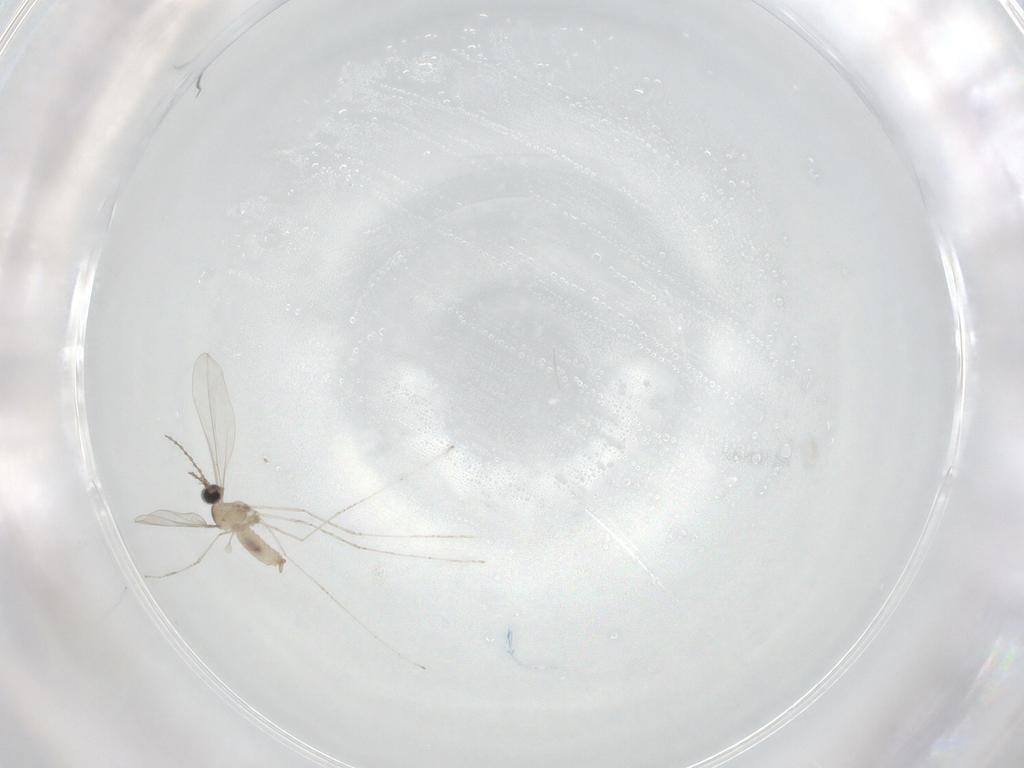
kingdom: Animalia
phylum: Arthropoda
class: Insecta
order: Diptera
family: Cecidomyiidae
